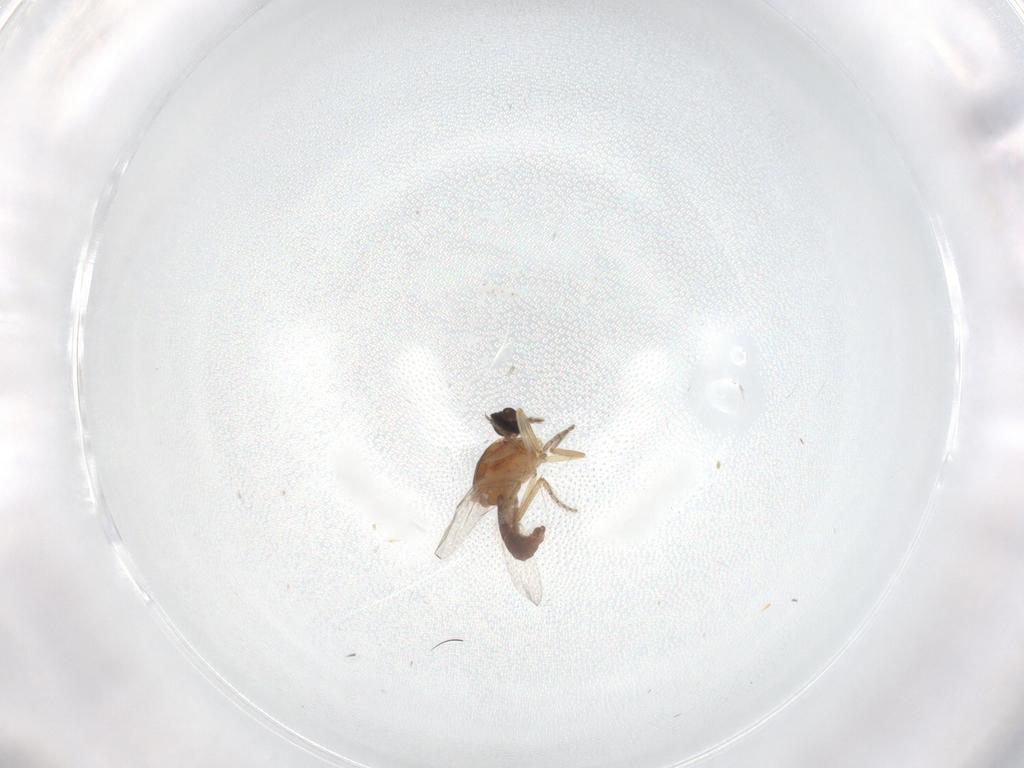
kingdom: Animalia
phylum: Arthropoda
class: Insecta
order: Diptera
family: Ceratopogonidae
